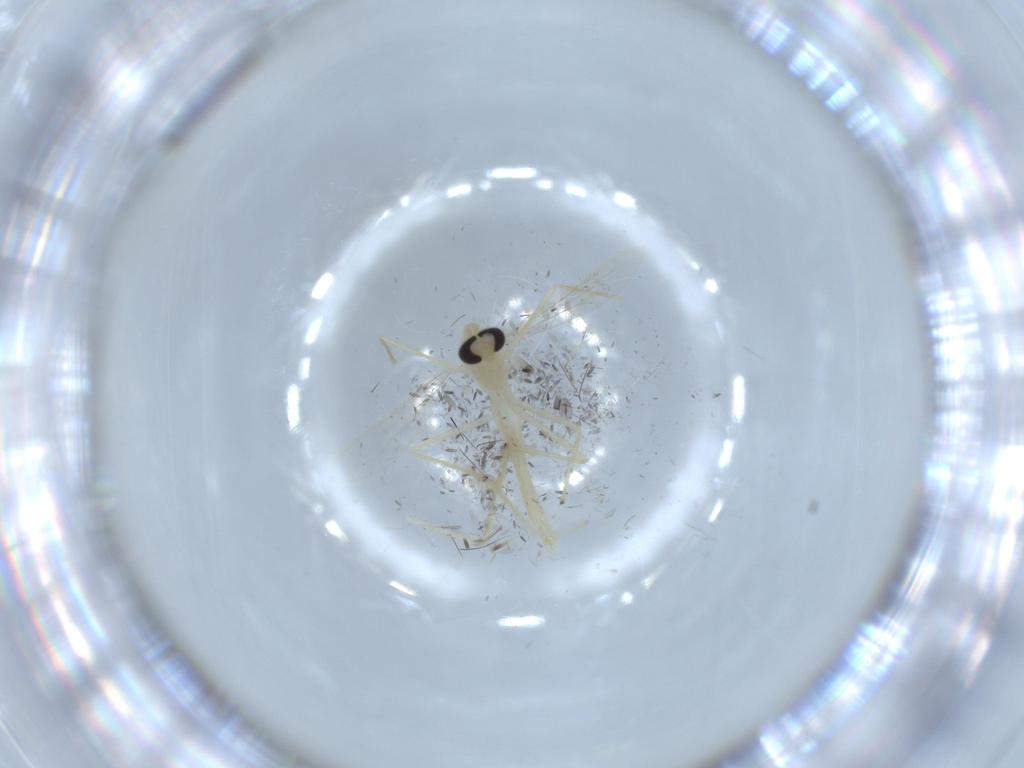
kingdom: Animalia
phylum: Arthropoda
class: Insecta
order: Diptera
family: Chironomidae
